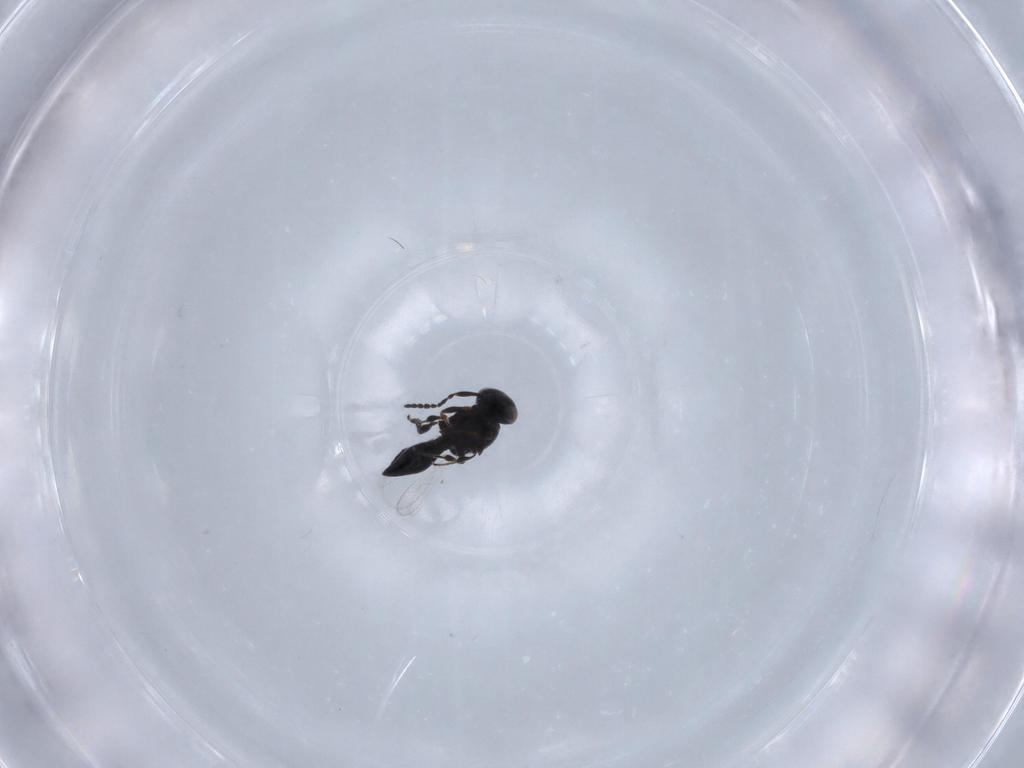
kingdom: Animalia
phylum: Arthropoda
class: Insecta
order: Hymenoptera
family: Platygastridae
